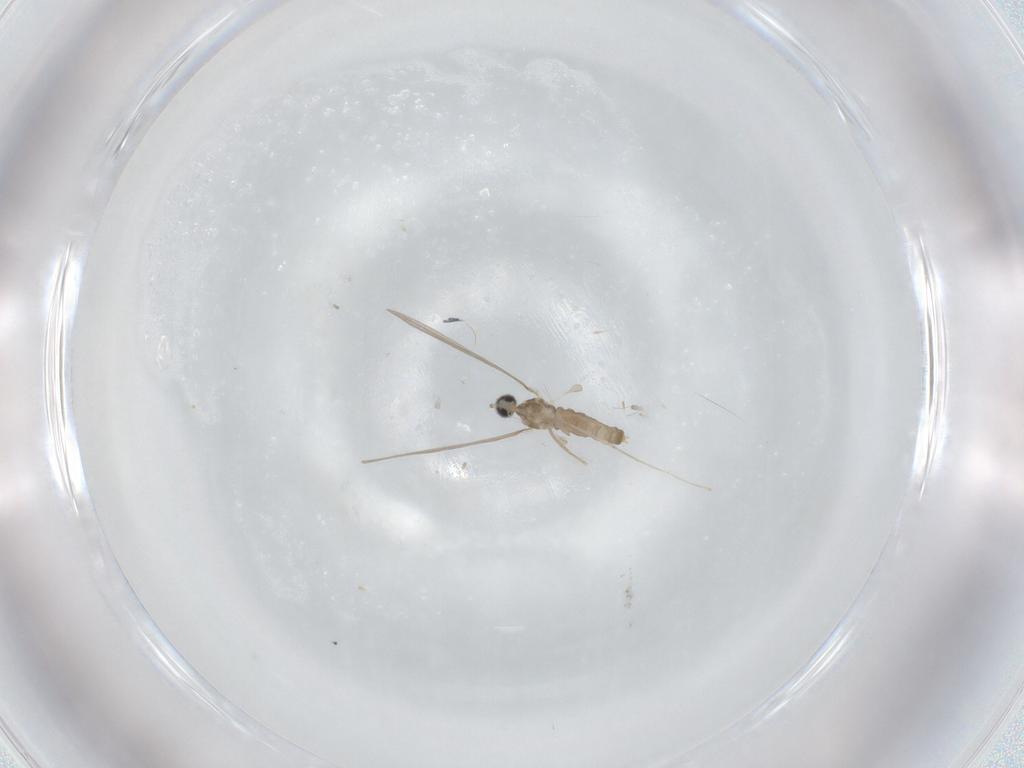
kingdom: Animalia
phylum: Arthropoda
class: Insecta
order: Diptera
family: Cecidomyiidae
